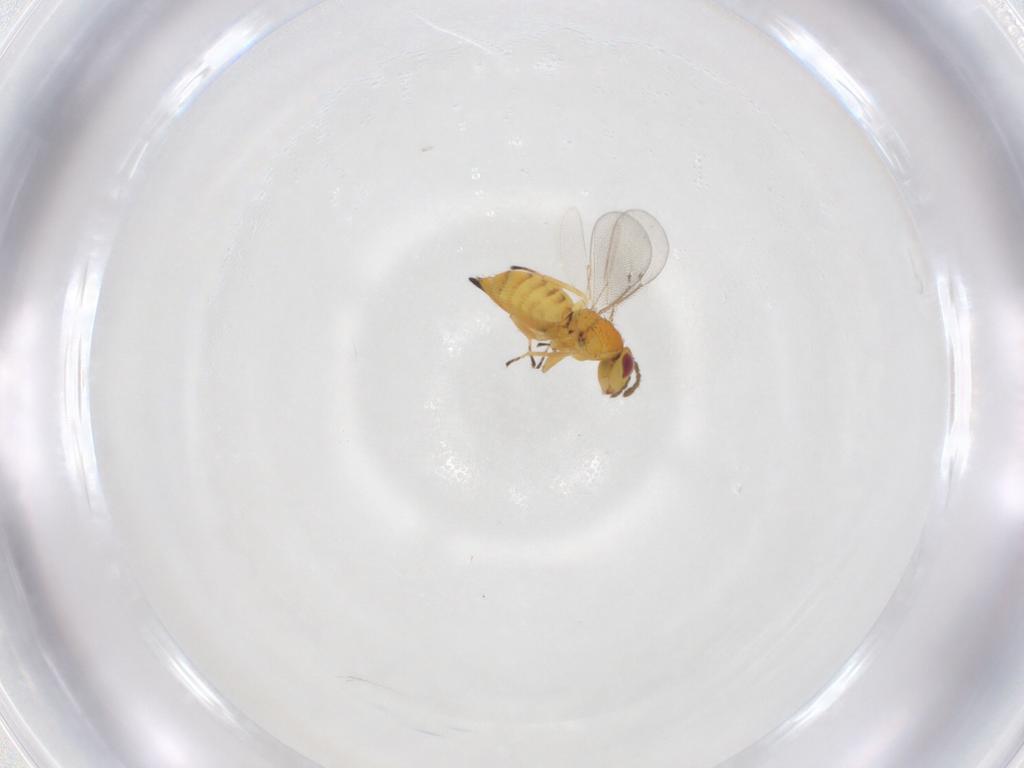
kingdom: Animalia
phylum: Arthropoda
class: Insecta
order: Hymenoptera
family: Eulophidae
